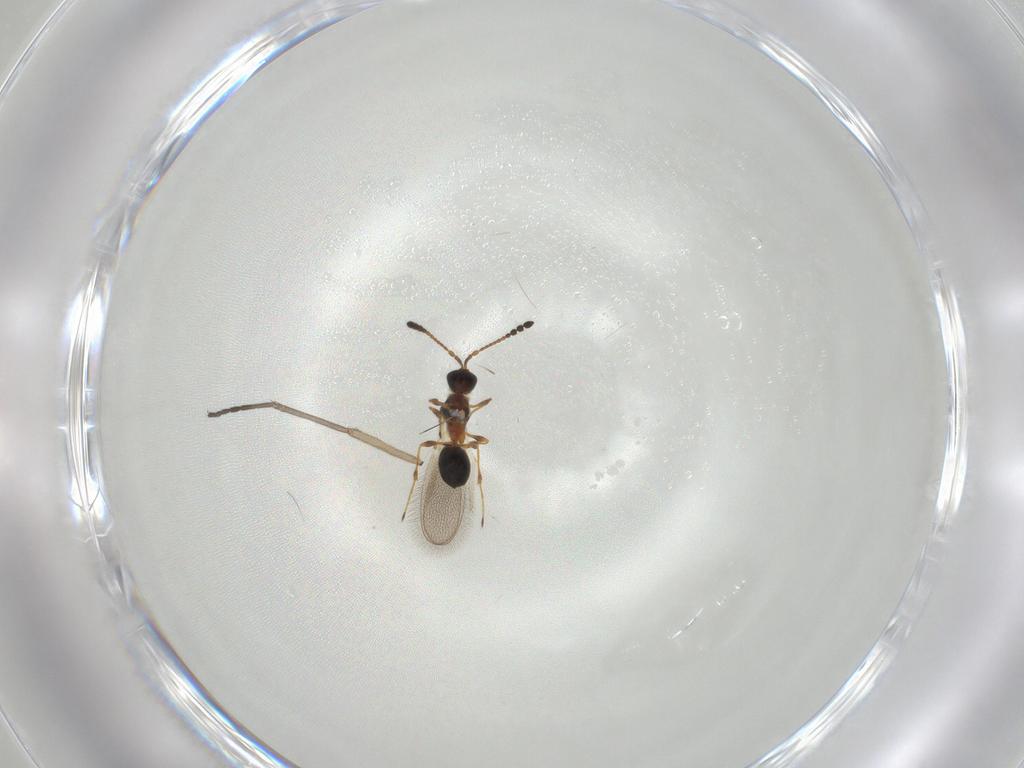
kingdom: Animalia
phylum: Arthropoda
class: Insecta
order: Hymenoptera
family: Diapriidae
